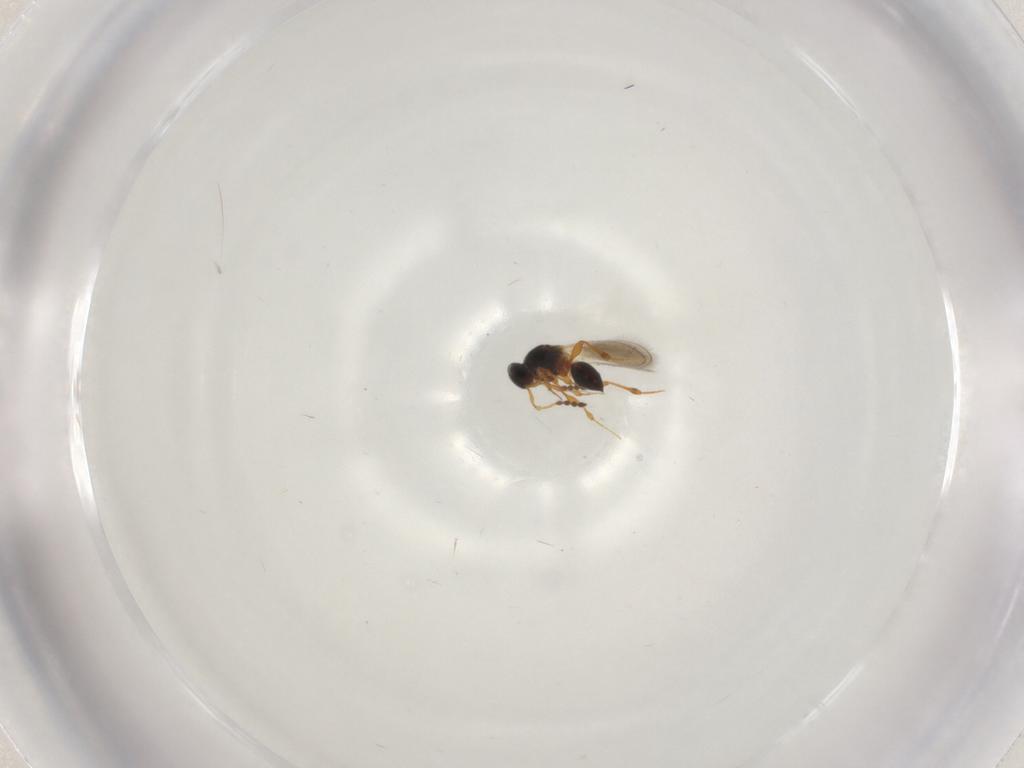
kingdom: Animalia
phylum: Arthropoda
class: Insecta
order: Hymenoptera
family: Platygastridae
